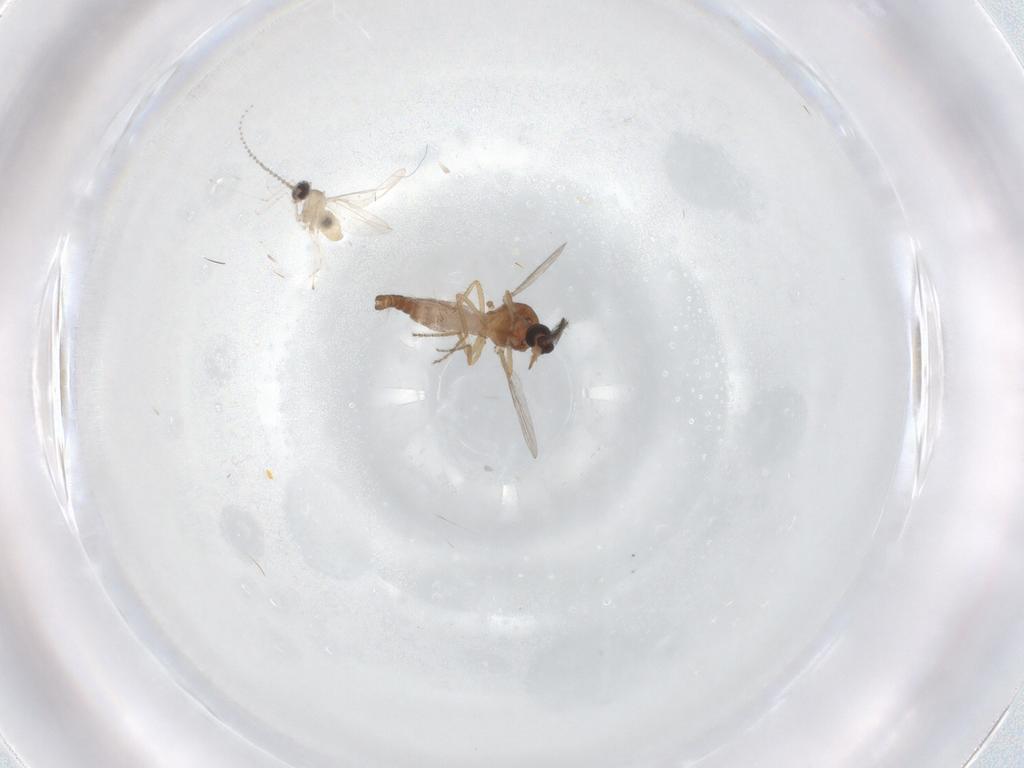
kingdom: Animalia
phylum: Arthropoda
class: Insecta
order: Diptera
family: Ceratopogonidae
